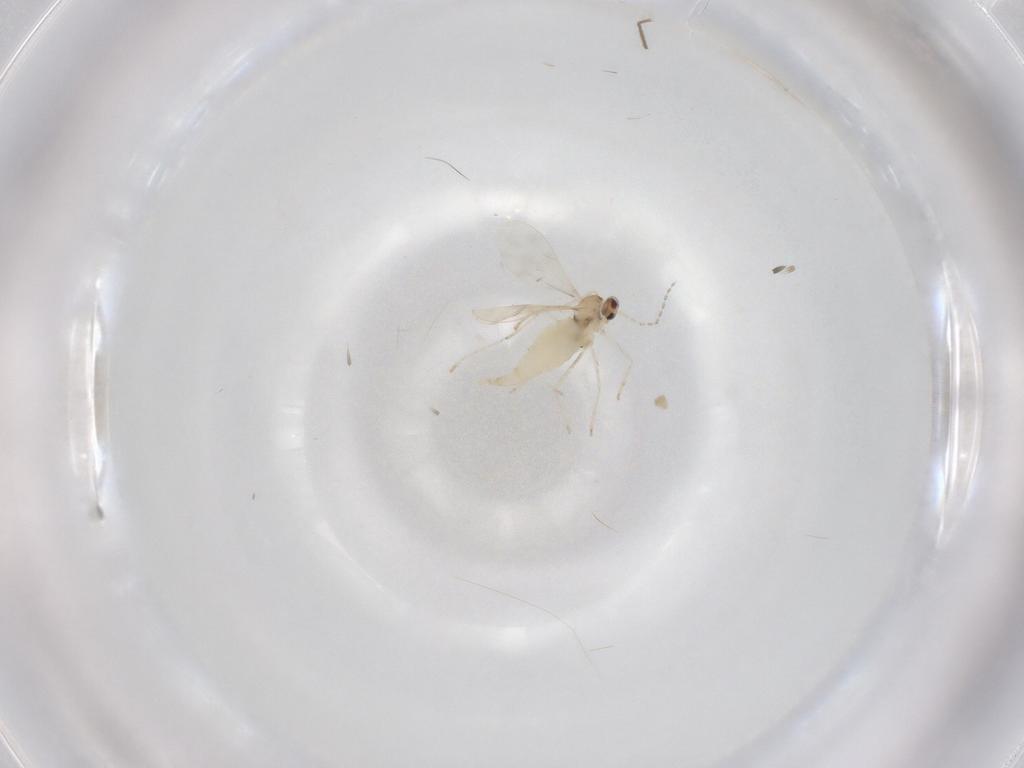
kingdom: Animalia
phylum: Arthropoda
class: Insecta
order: Diptera
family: Cecidomyiidae
